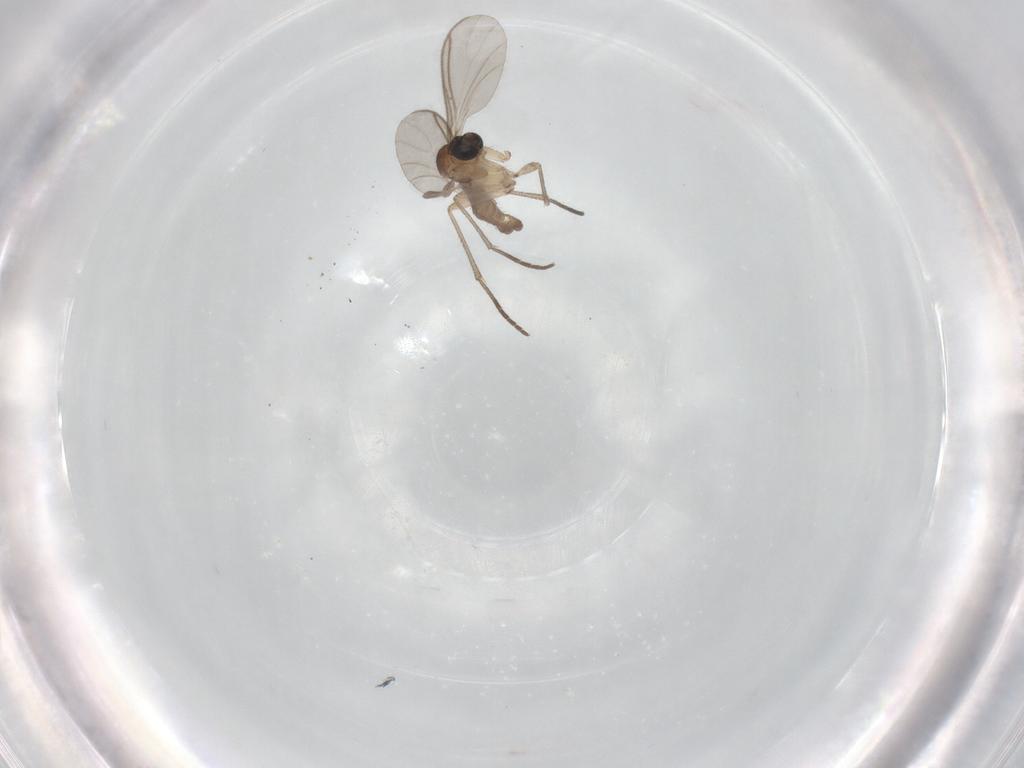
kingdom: Animalia
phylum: Arthropoda
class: Insecta
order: Diptera
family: Sciaridae
